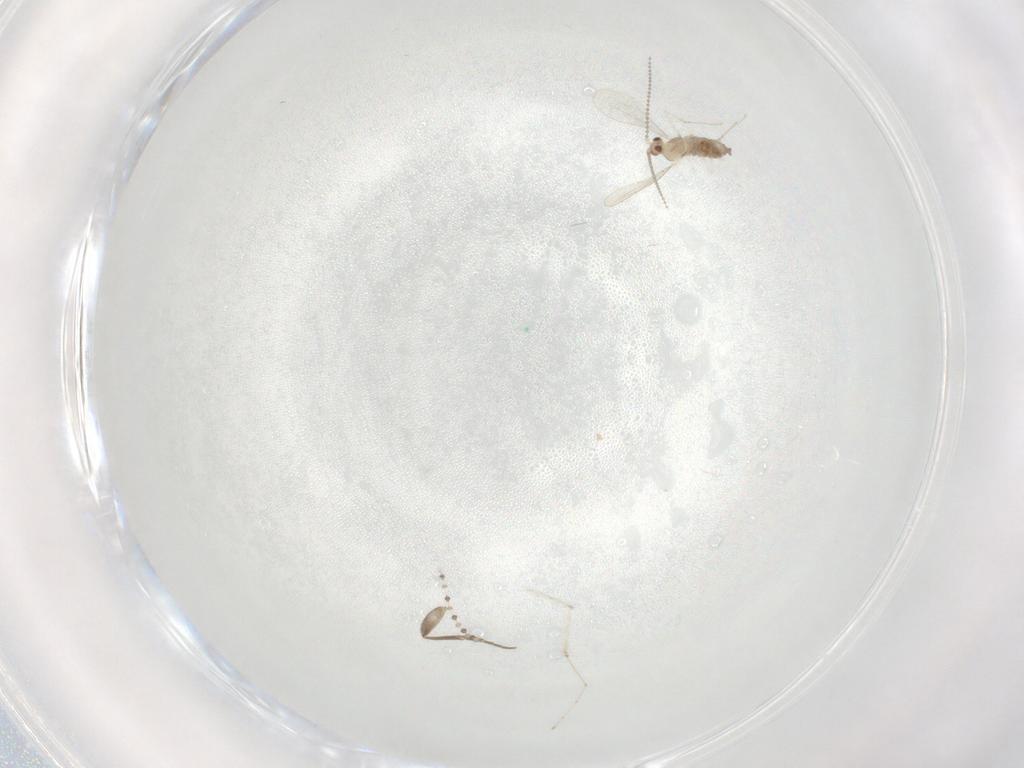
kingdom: Animalia
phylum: Arthropoda
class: Insecta
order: Diptera
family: Cecidomyiidae
